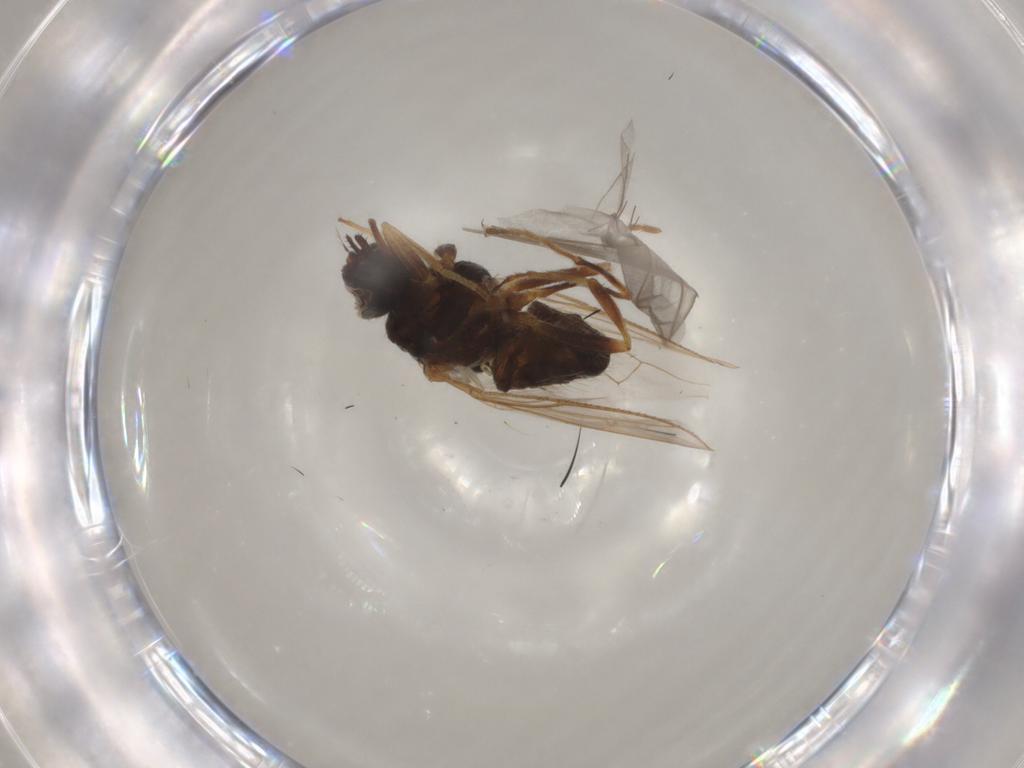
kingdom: Animalia
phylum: Arthropoda
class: Insecta
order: Diptera
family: Pipunculidae
